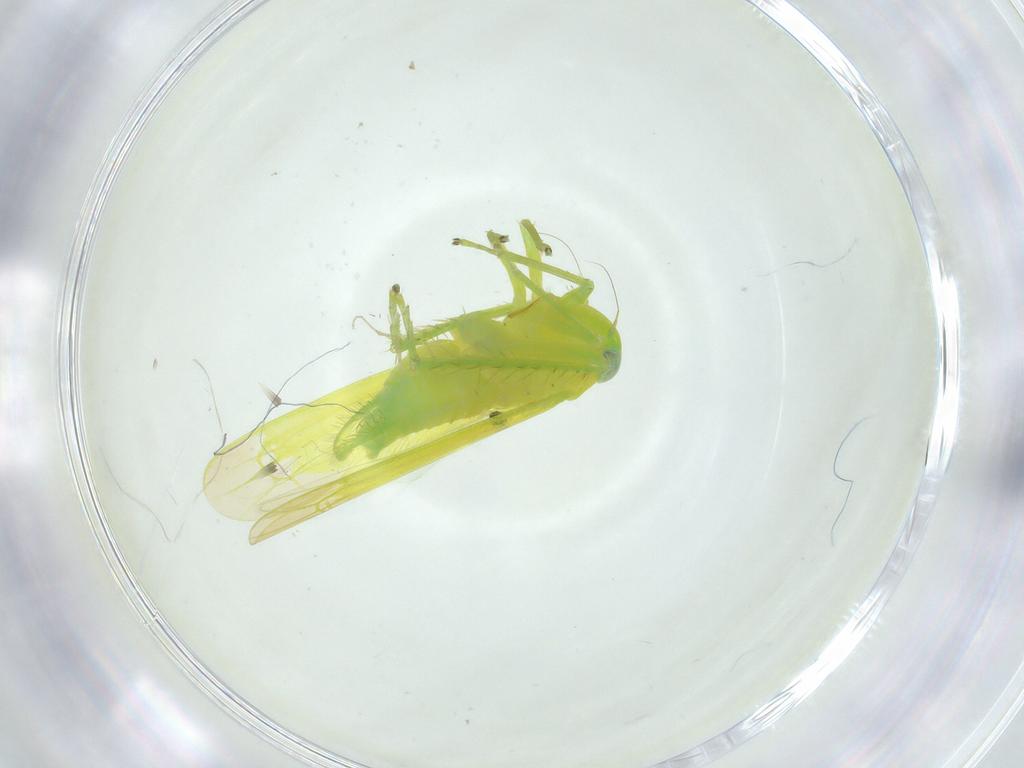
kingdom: Animalia
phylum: Arthropoda
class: Insecta
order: Hemiptera
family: Cicadellidae
